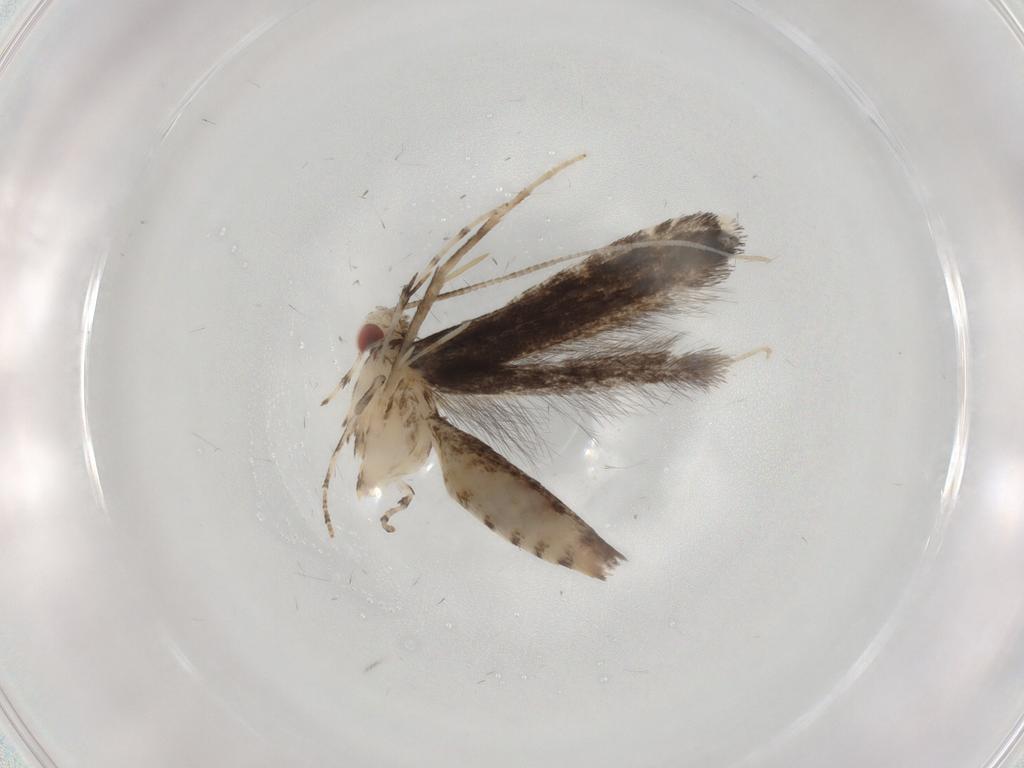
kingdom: Animalia
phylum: Arthropoda
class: Insecta
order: Lepidoptera
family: Gracillariidae
